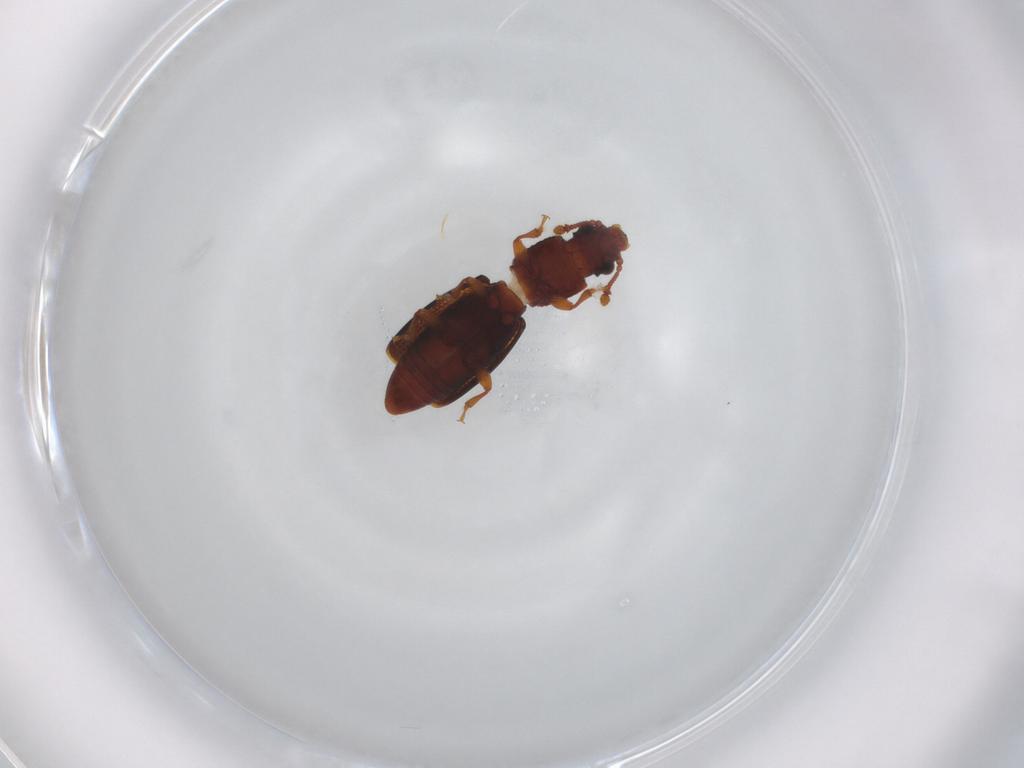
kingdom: Animalia
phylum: Arthropoda
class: Insecta
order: Coleoptera
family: Monotomidae
